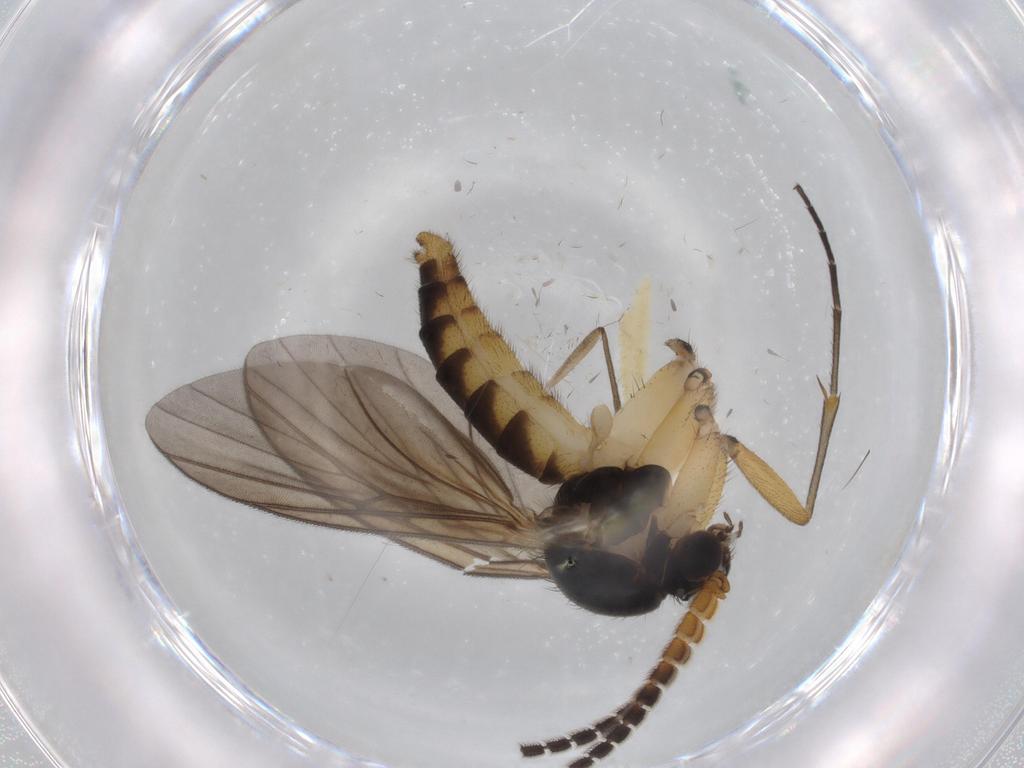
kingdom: Animalia
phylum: Arthropoda
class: Insecta
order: Diptera
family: Mycetophilidae
